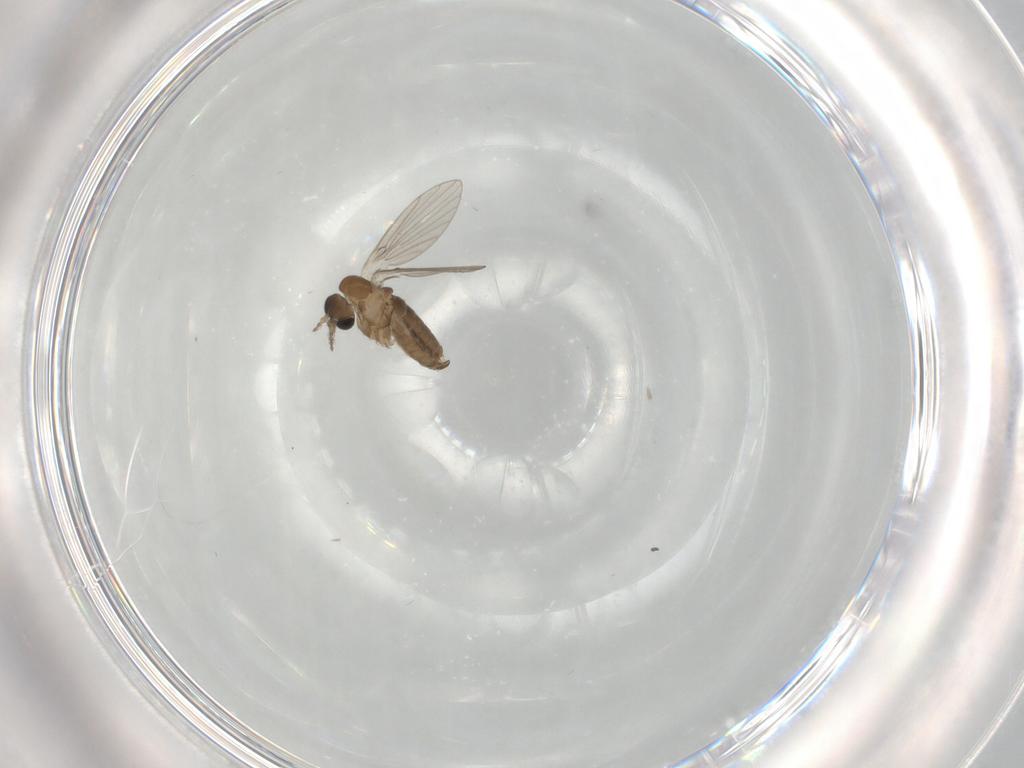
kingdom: Animalia
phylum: Arthropoda
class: Insecta
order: Diptera
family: Psychodidae
